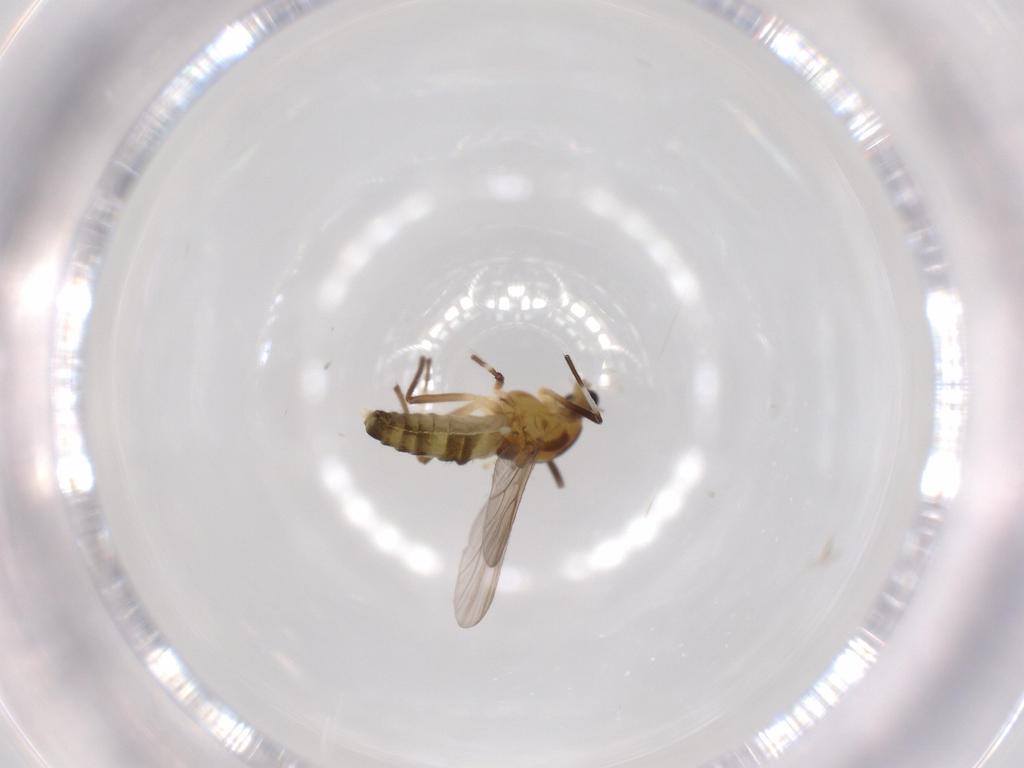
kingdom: Animalia
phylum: Arthropoda
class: Insecta
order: Diptera
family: Chironomidae
